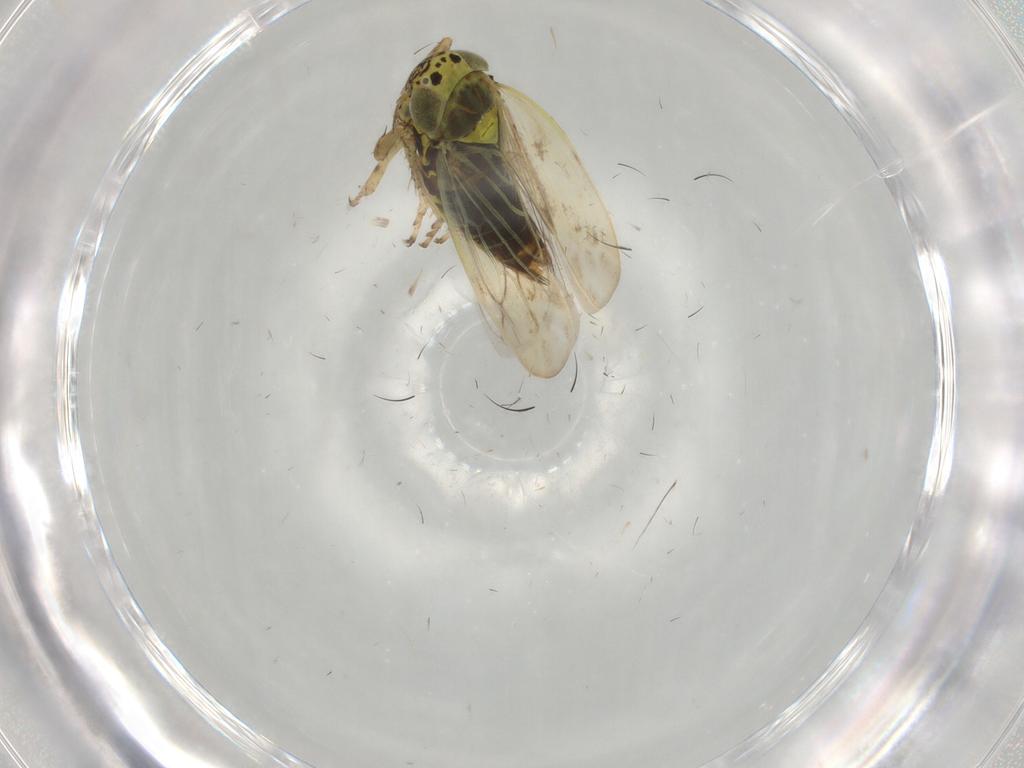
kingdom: Animalia
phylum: Arthropoda
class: Insecta
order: Hemiptera
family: Cicadellidae
